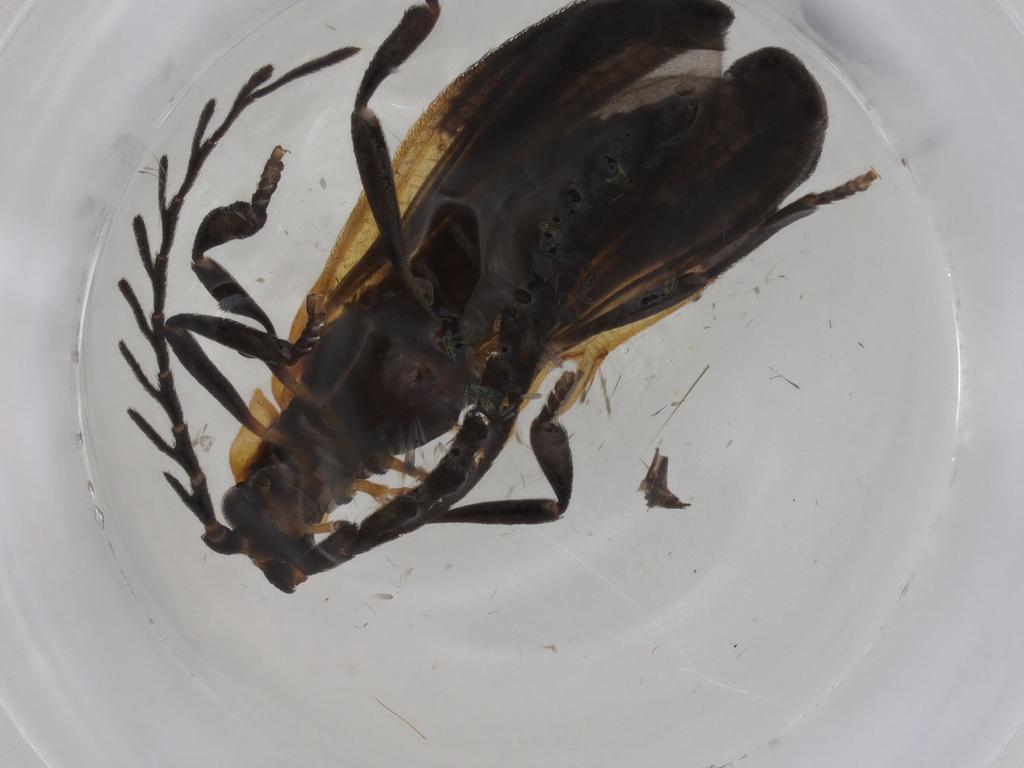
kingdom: Animalia
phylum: Arthropoda
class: Insecta
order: Coleoptera
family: Lycidae
